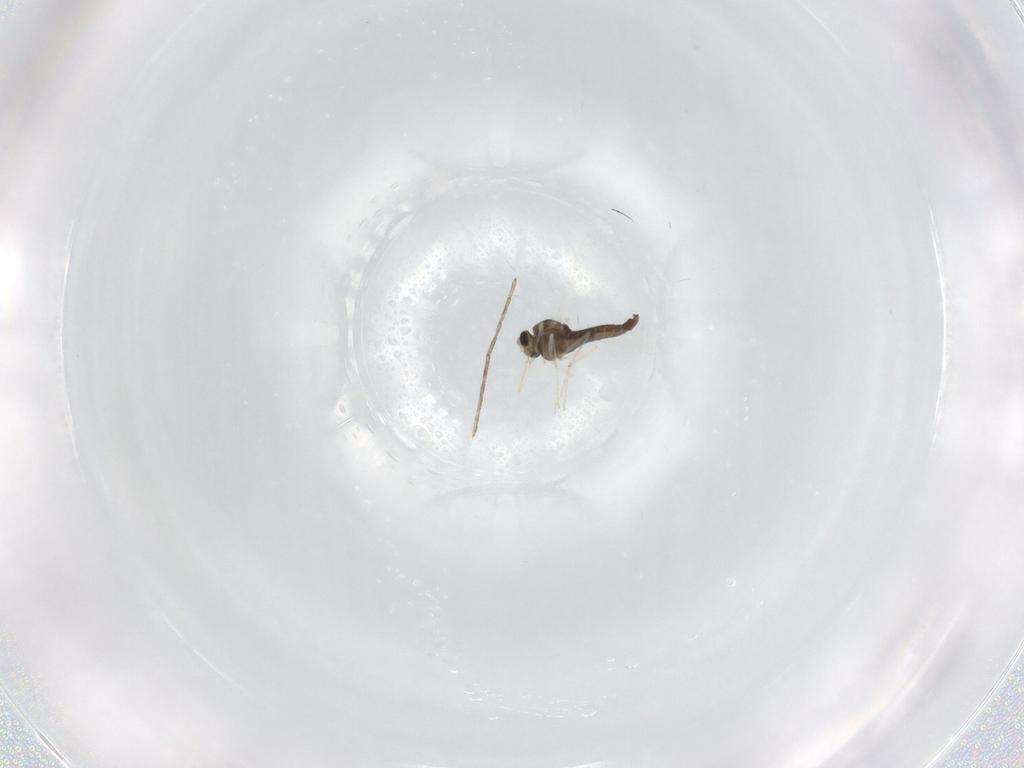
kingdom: Animalia
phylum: Arthropoda
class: Insecta
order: Diptera
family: Chironomidae
